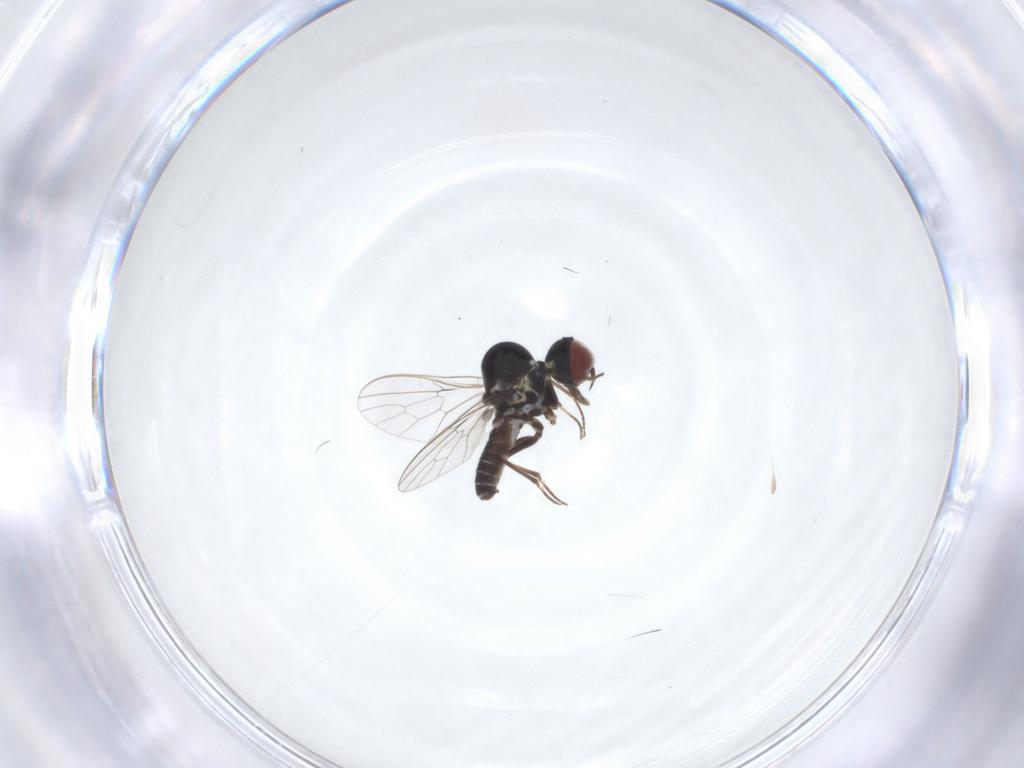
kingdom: Animalia
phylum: Arthropoda
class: Insecta
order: Diptera
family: Mythicomyiidae
